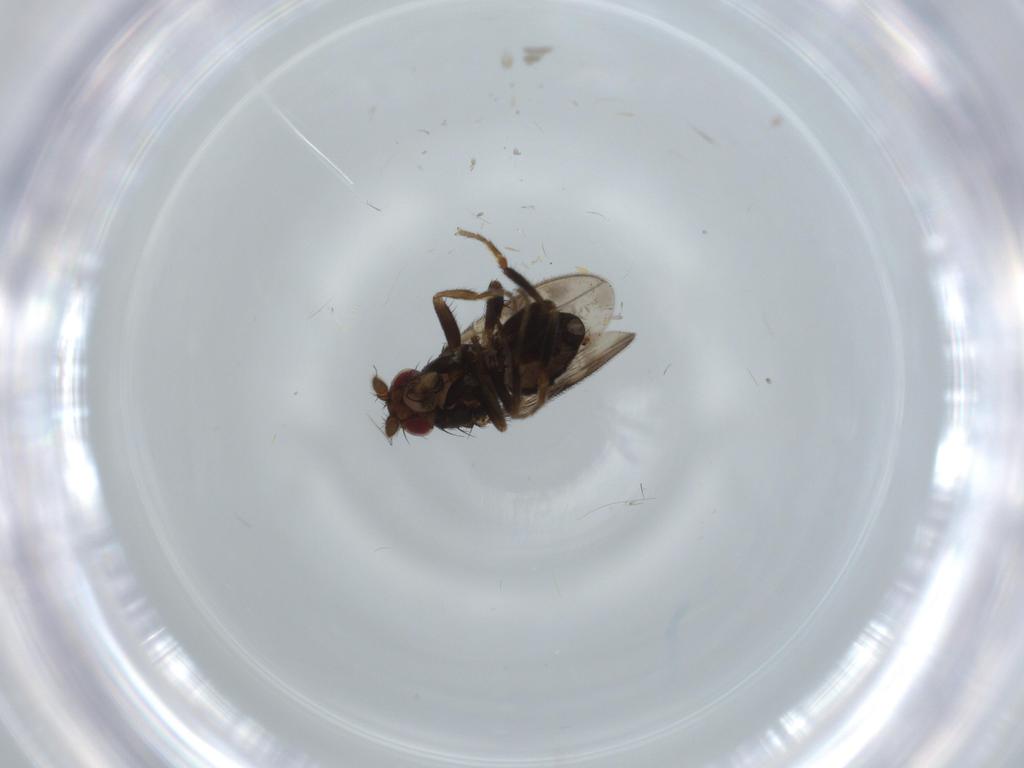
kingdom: Animalia
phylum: Arthropoda
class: Insecta
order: Diptera
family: Sphaeroceridae
